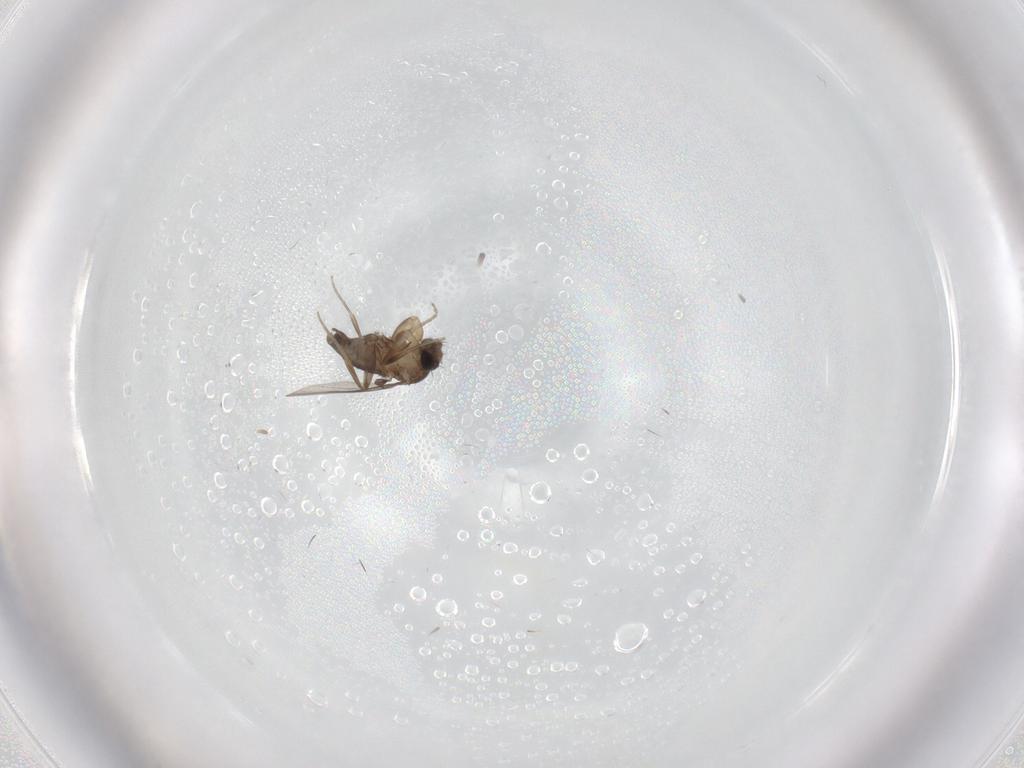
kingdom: Animalia
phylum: Arthropoda
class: Insecta
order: Diptera
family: Phoridae
